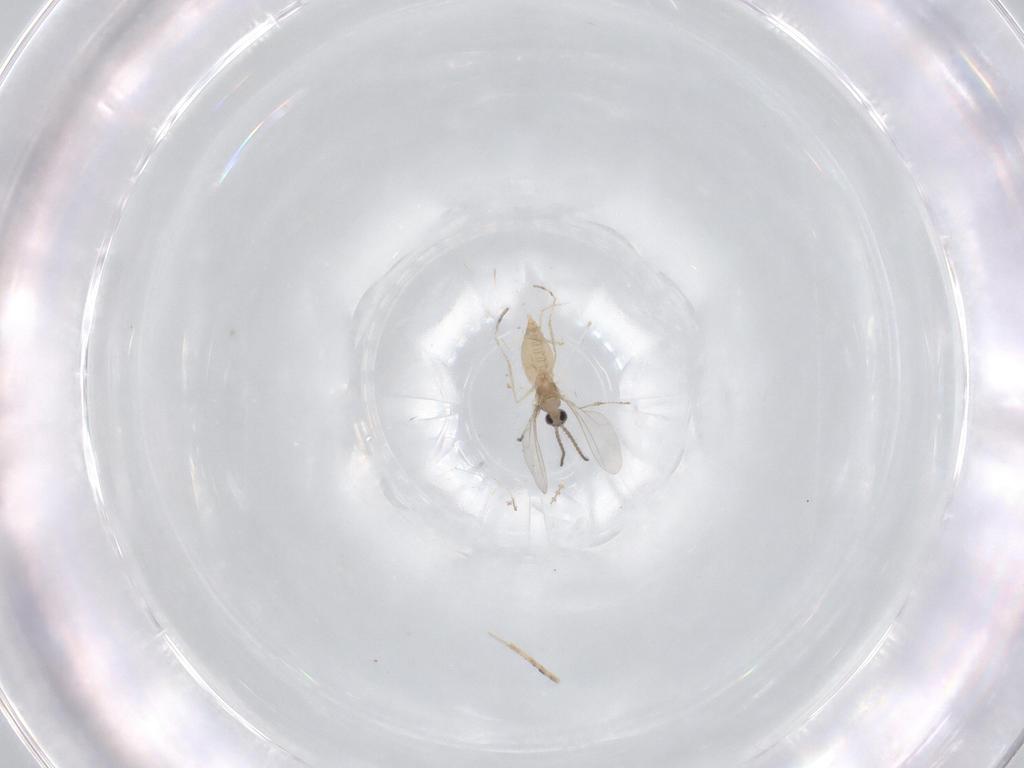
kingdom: Animalia
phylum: Arthropoda
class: Insecta
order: Diptera
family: Cecidomyiidae
